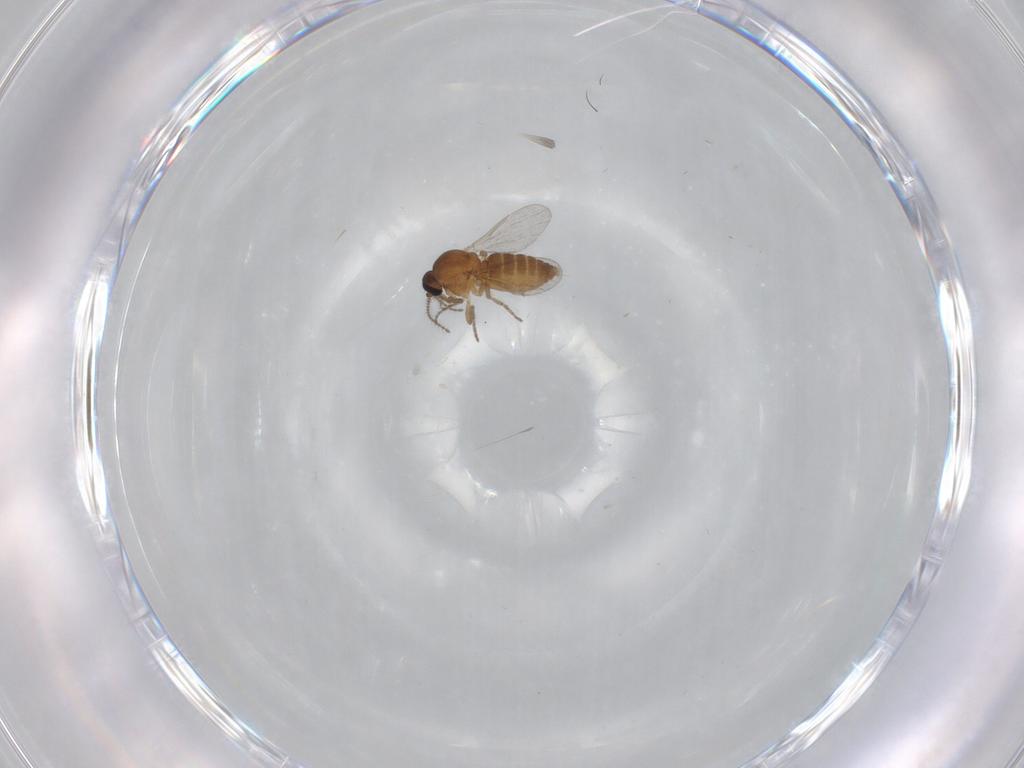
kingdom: Animalia
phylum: Arthropoda
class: Insecta
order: Diptera
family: Ceratopogonidae
